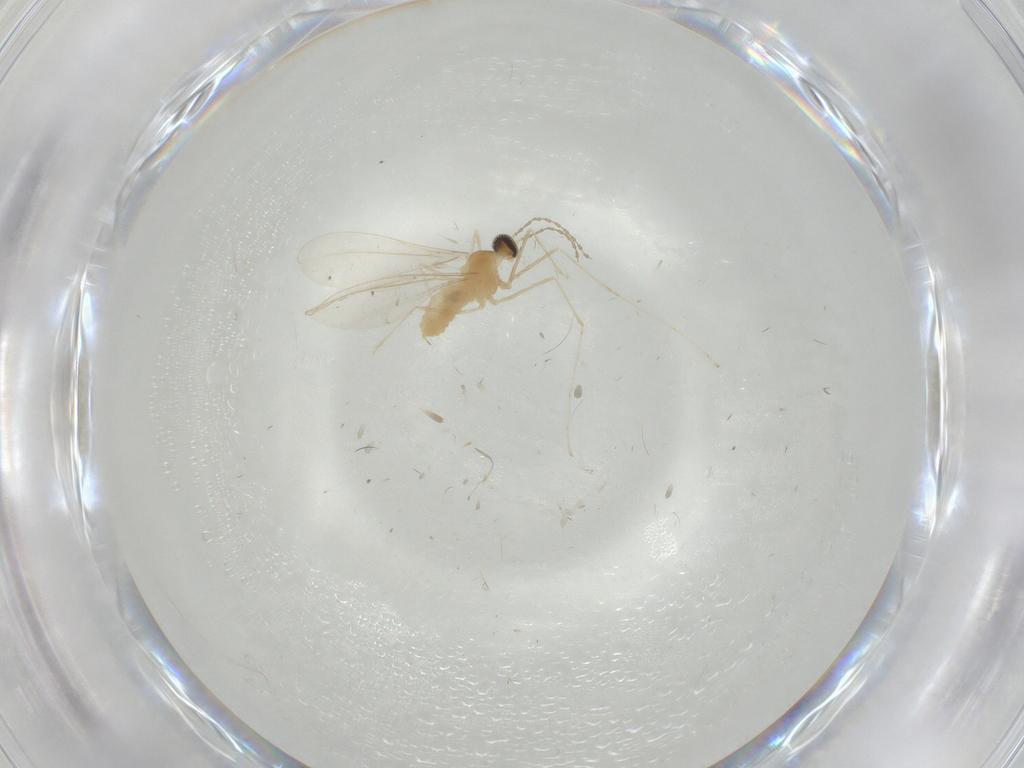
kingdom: Animalia
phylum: Arthropoda
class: Insecta
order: Diptera
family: Cecidomyiidae
